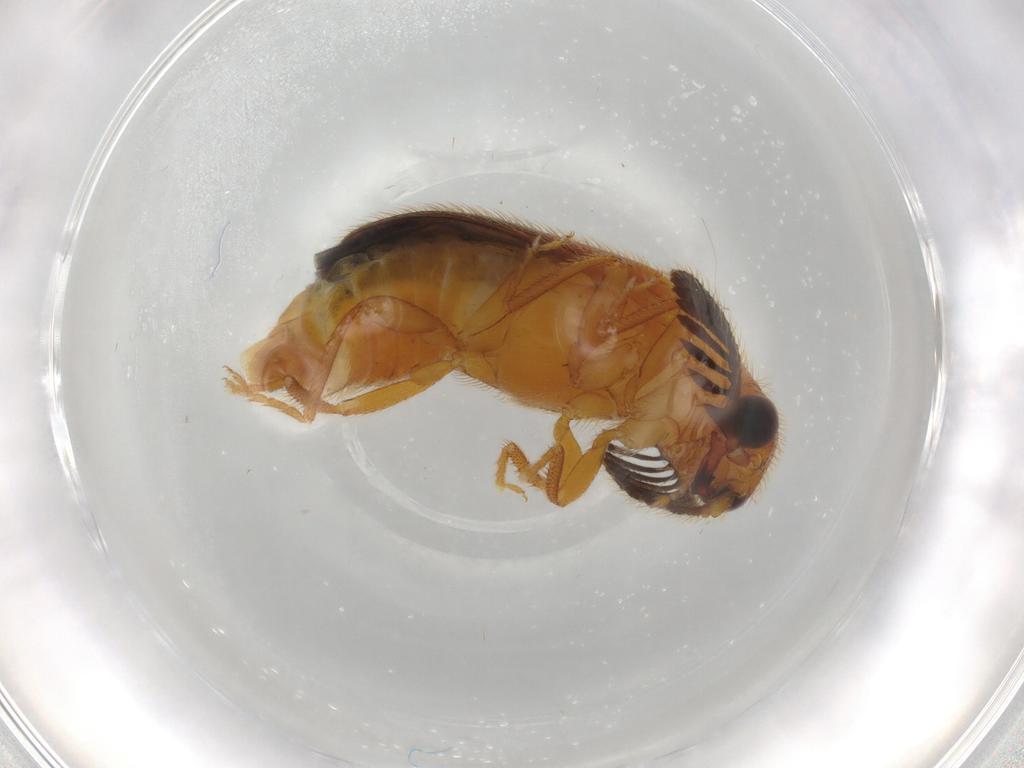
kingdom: Animalia
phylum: Arthropoda
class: Insecta
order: Coleoptera
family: Elateridae
